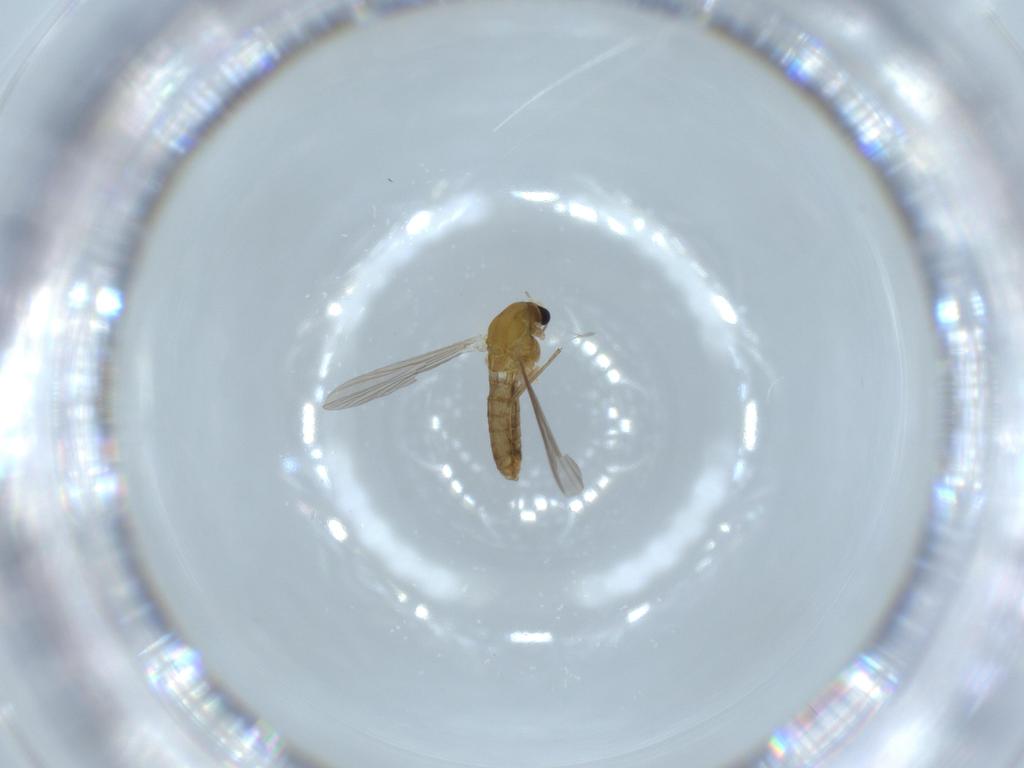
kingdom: Animalia
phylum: Arthropoda
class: Insecta
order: Diptera
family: Chironomidae
